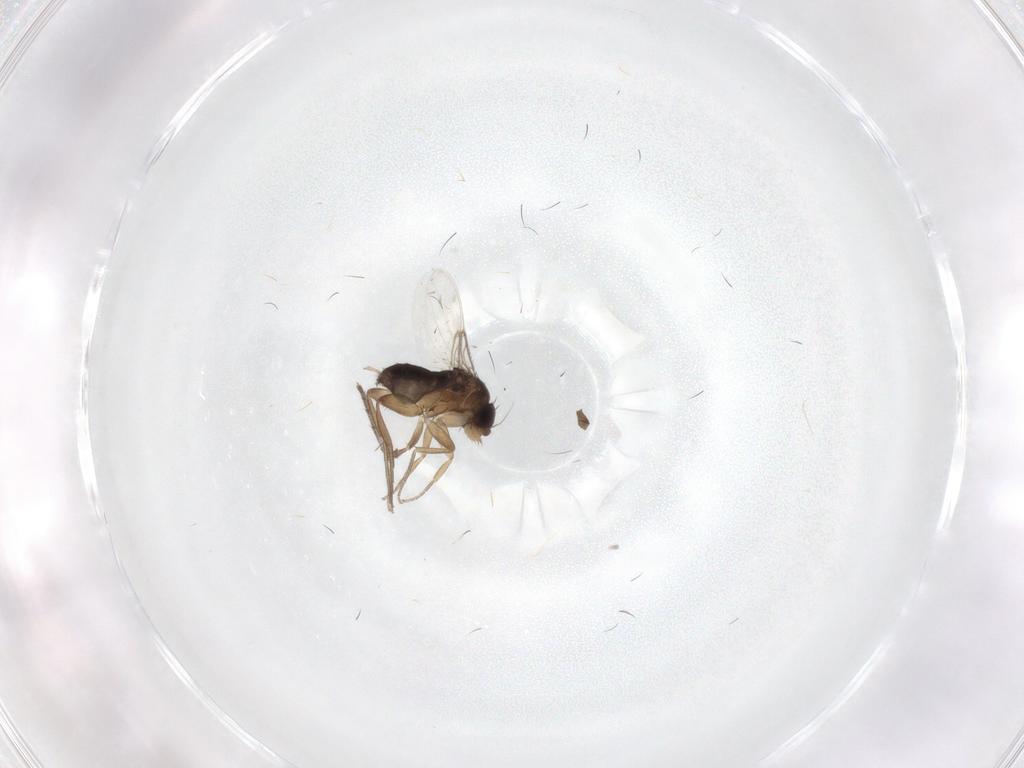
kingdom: Animalia
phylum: Arthropoda
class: Insecta
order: Diptera
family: Phoridae
